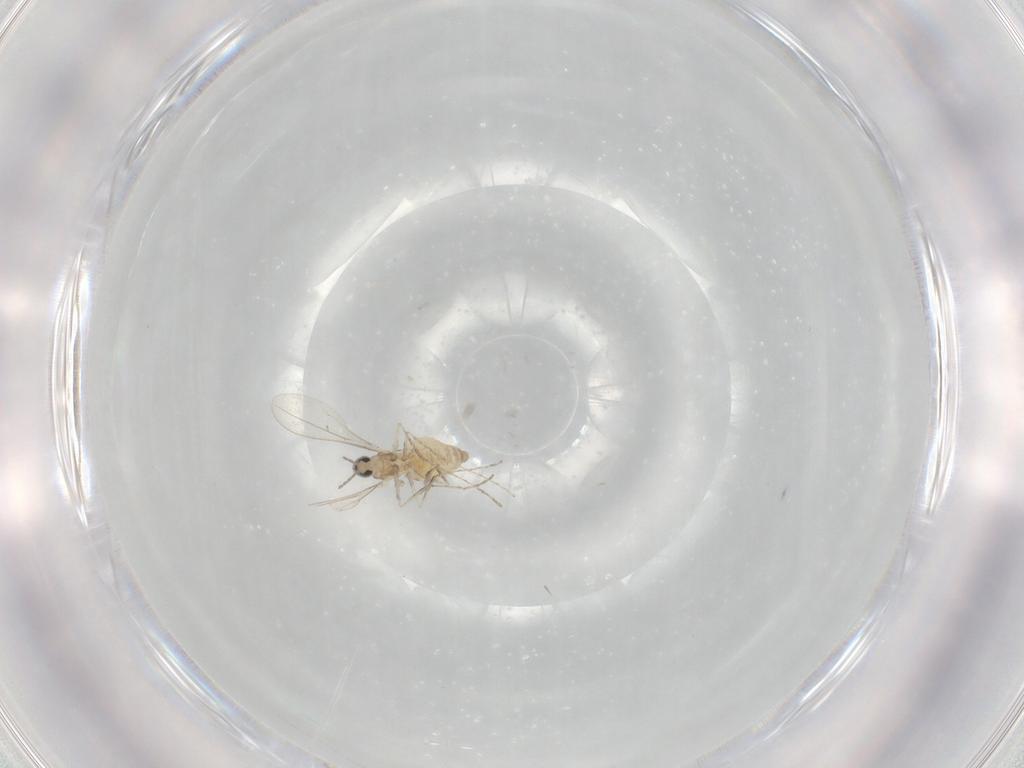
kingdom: Animalia
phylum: Arthropoda
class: Insecta
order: Diptera
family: Cecidomyiidae
